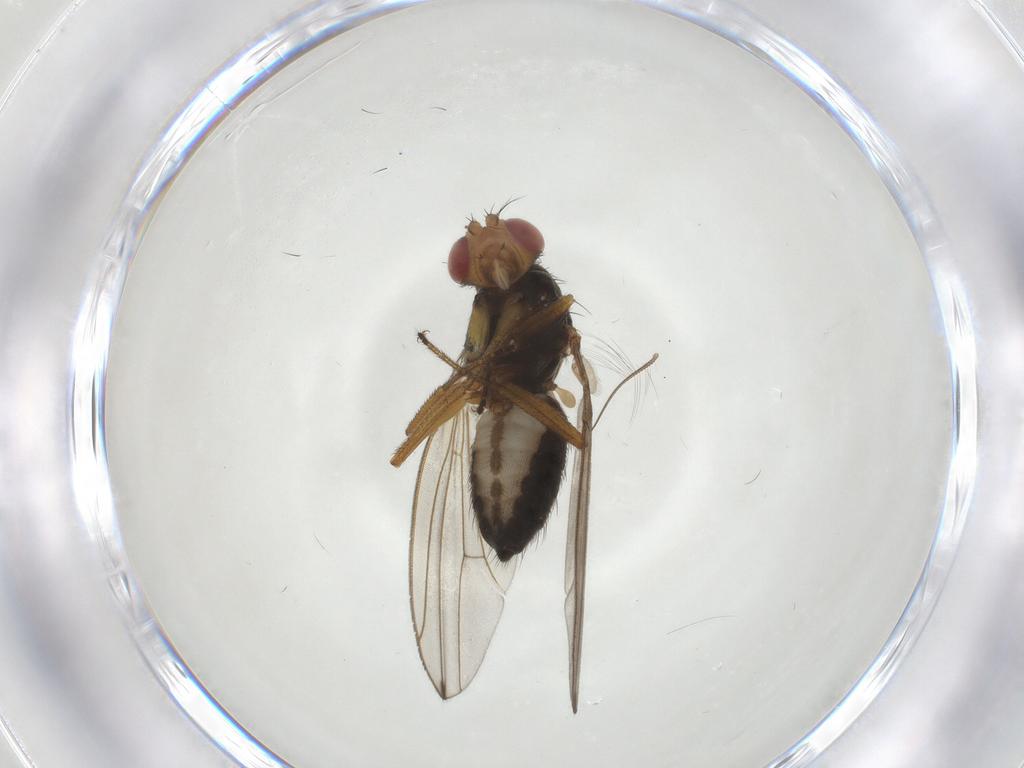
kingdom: Animalia
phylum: Arthropoda
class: Insecta
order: Diptera
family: Drosophilidae
